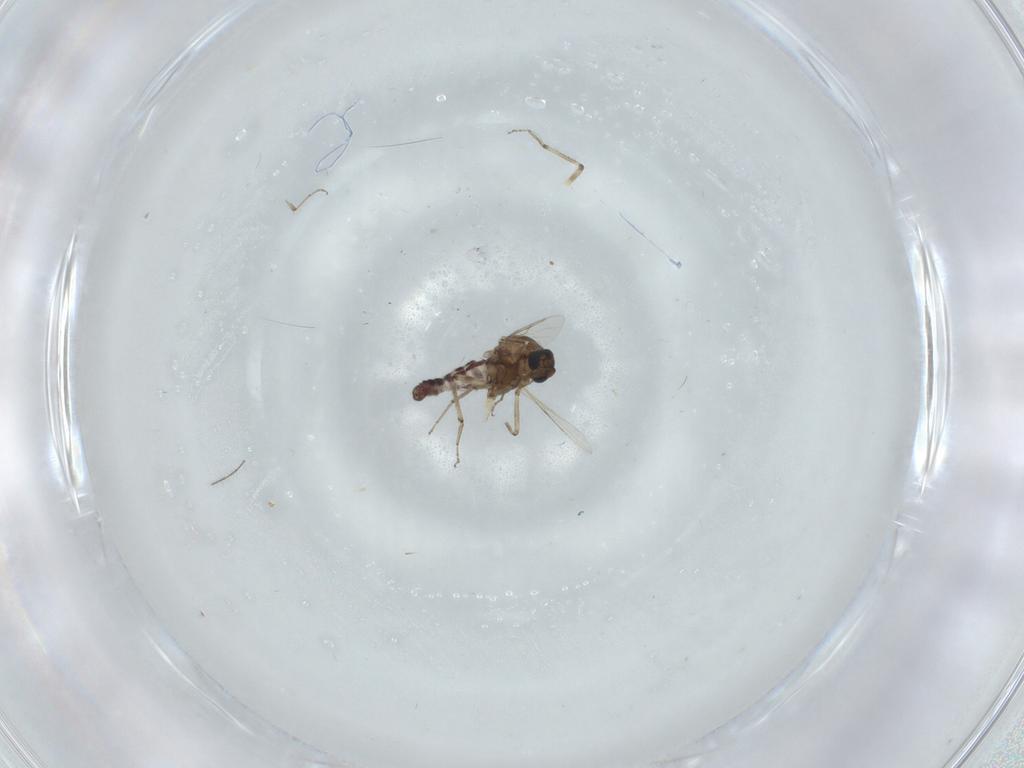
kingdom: Animalia
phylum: Arthropoda
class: Insecta
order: Diptera
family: Ceratopogonidae
